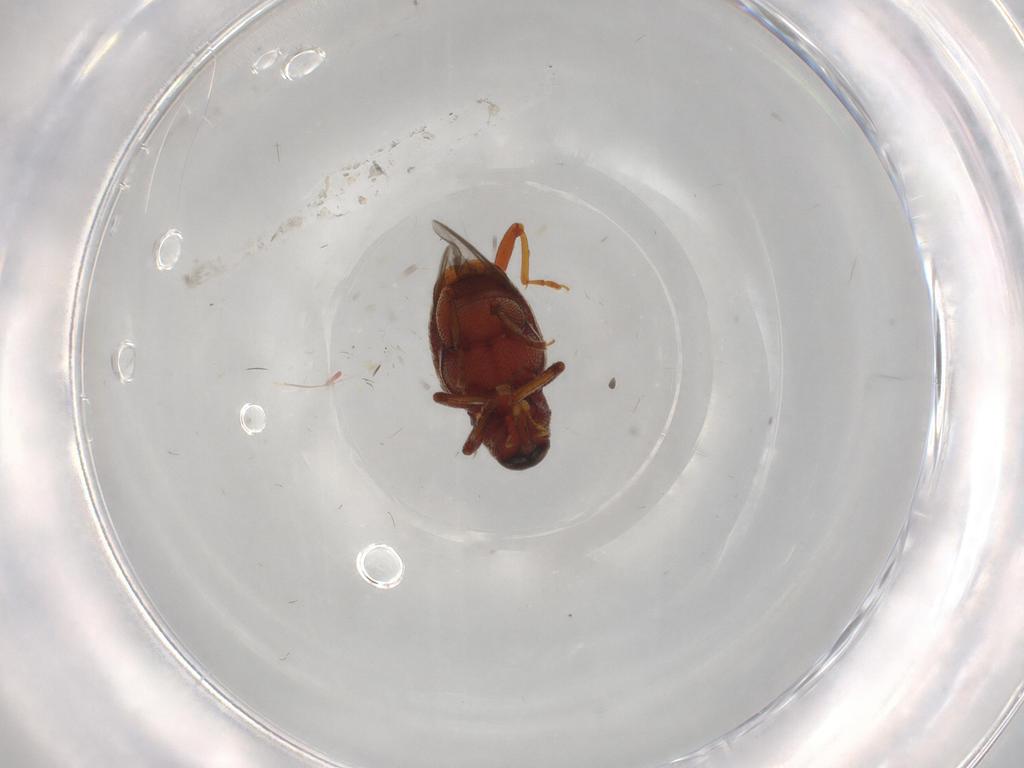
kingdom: Animalia
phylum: Arthropoda
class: Insecta
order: Coleoptera
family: Curculionidae
